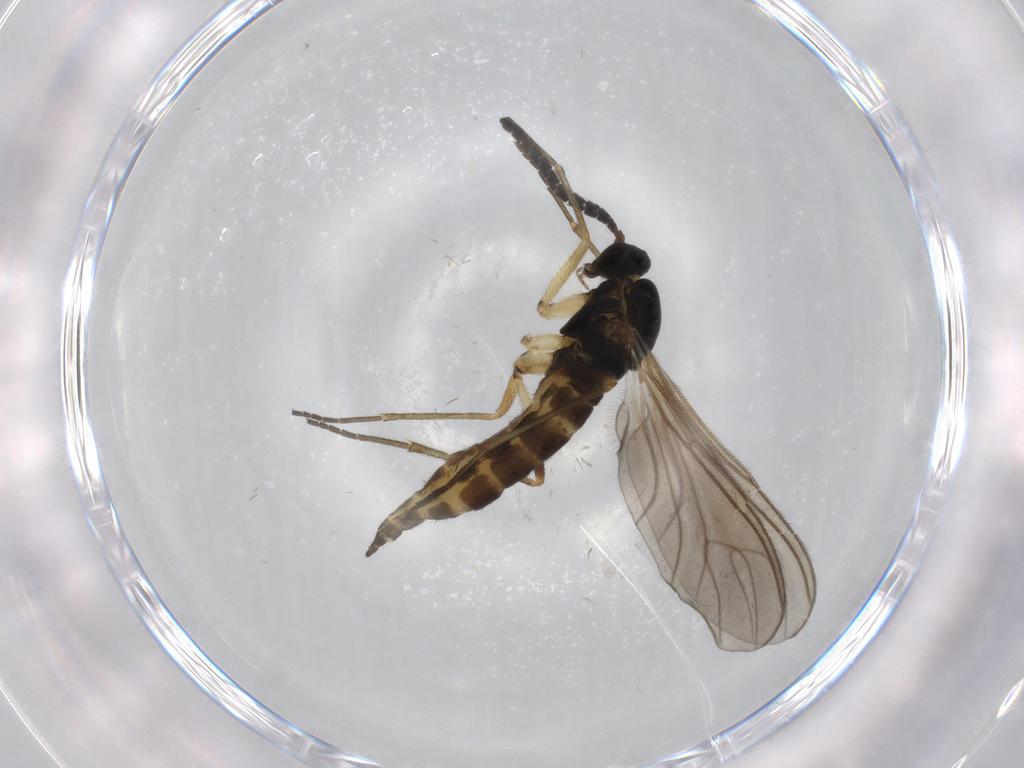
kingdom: Animalia
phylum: Arthropoda
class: Insecta
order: Diptera
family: Sciaridae
